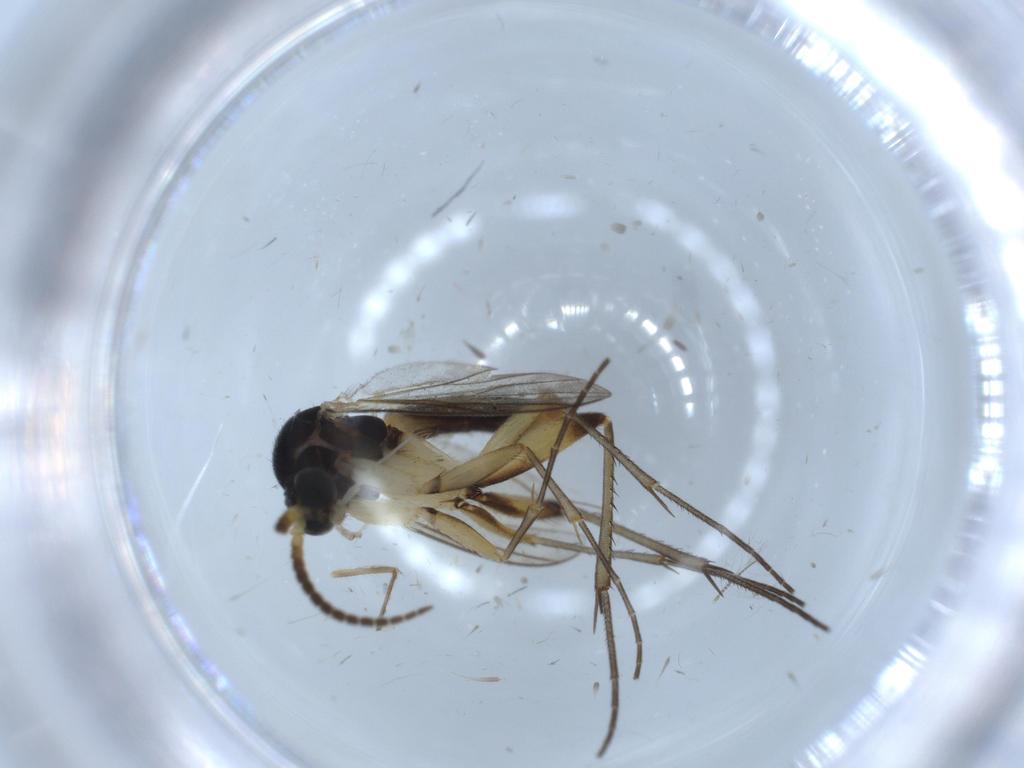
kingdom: Animalia
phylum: Arthropoda
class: Insecta
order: Diptera
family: Mycetophilidae
